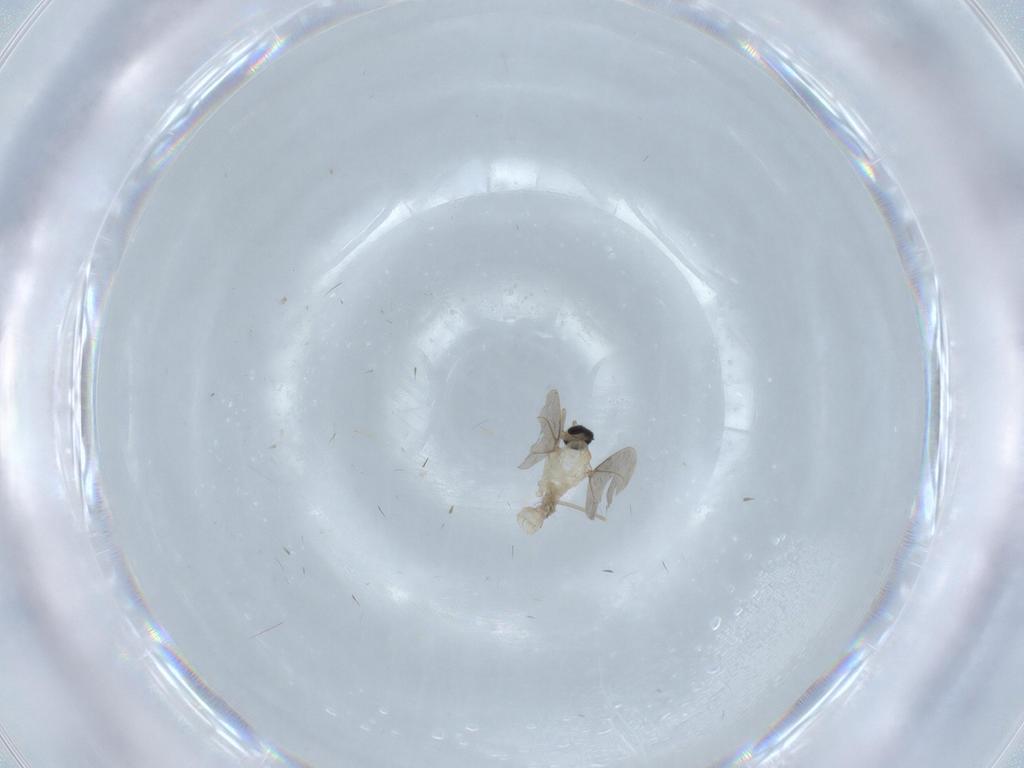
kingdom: Animalia
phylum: Arthropoda
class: Insecta
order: Diptera
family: Cecidomyiidae
